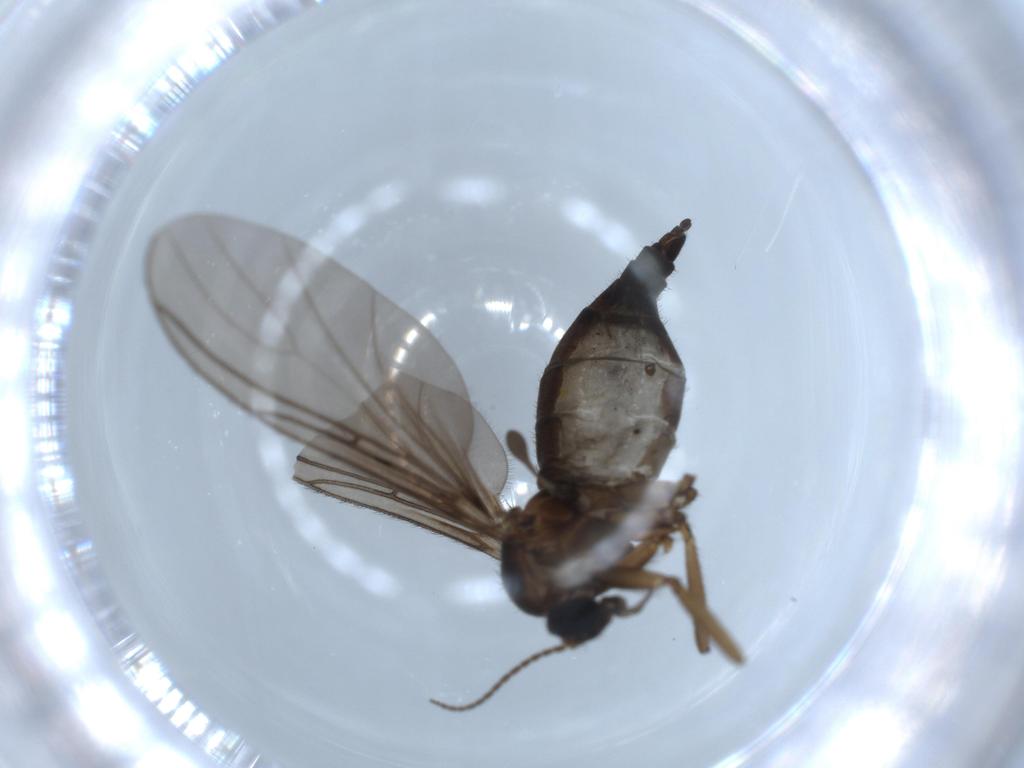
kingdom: Animalia
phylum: Arthropoda
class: Insecta
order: Diptera
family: Sciaridae
